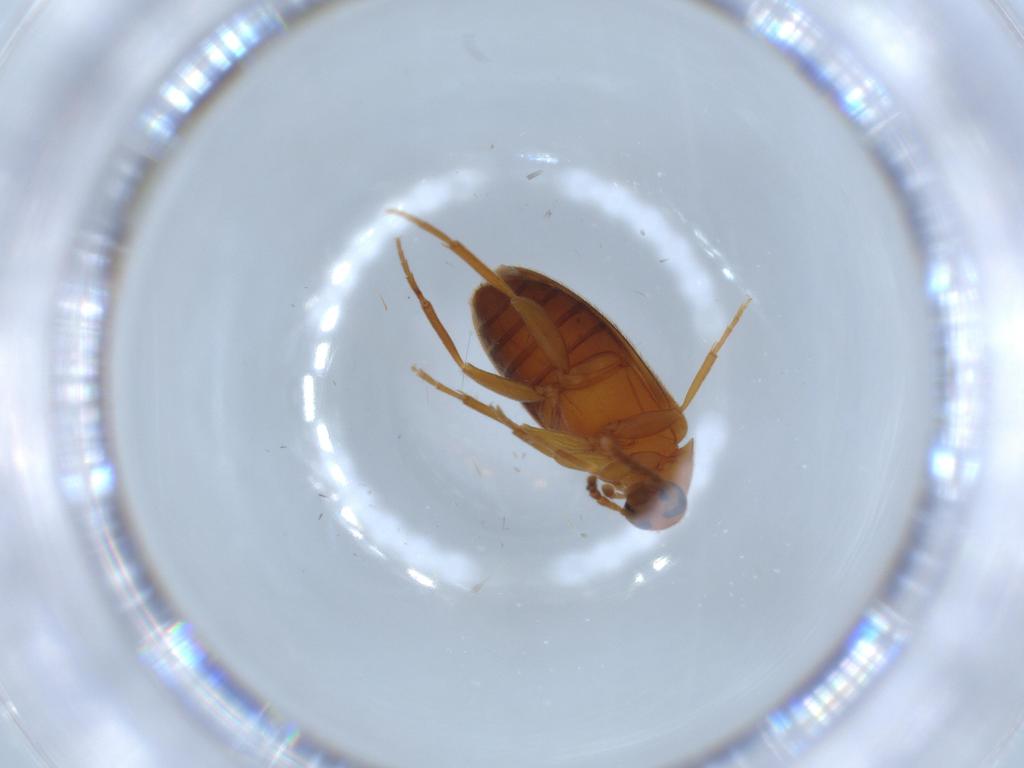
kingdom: Animalia
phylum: Arthropoda
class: Insecta
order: Coleoptera
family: Scraptiidae
